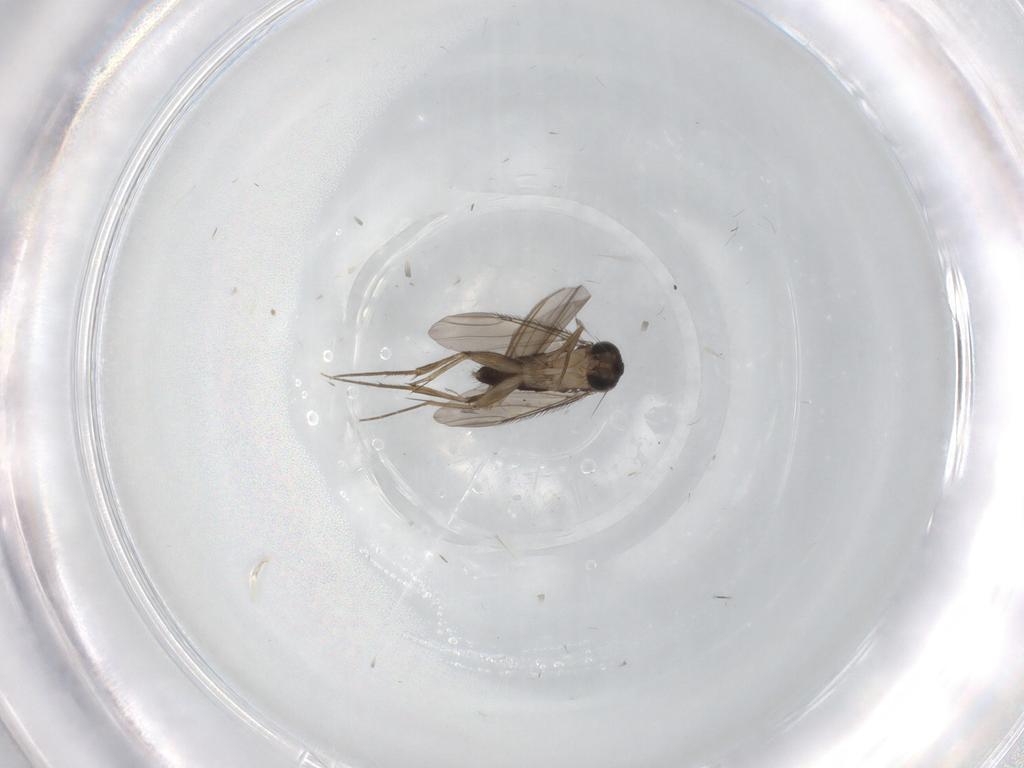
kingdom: Animalia
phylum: Arthropoda
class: Insecta
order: Diptera
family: Phoridae
